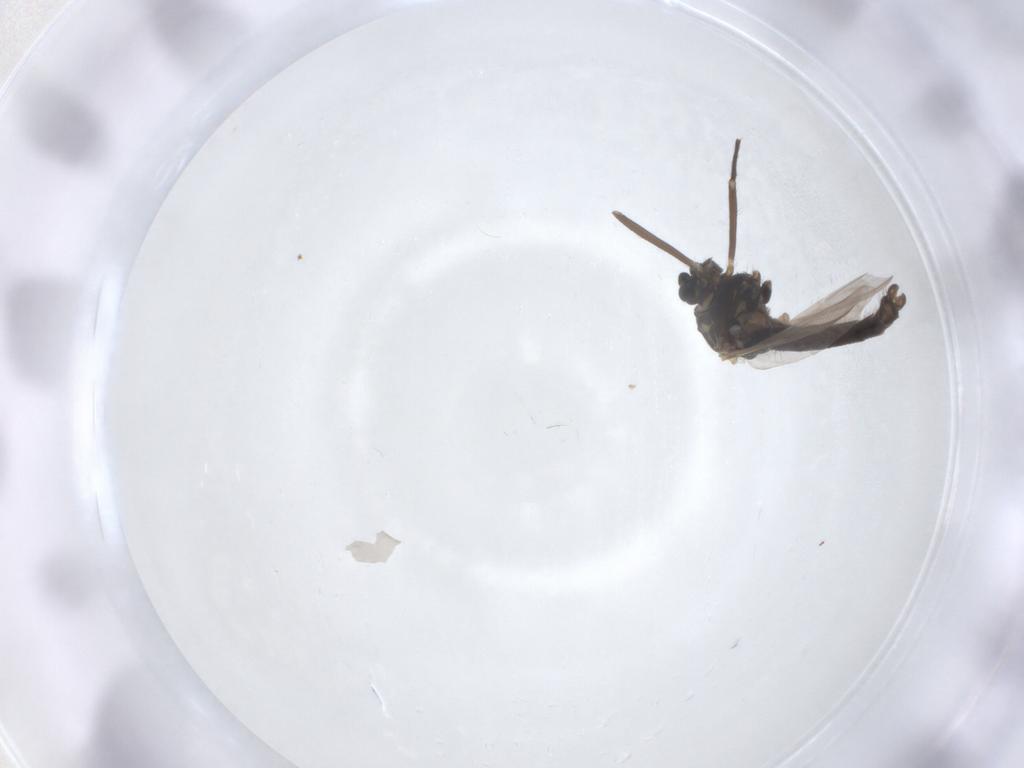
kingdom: Animalia
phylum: Arthropoda
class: Insecta
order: Diptera
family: Chironomidae
